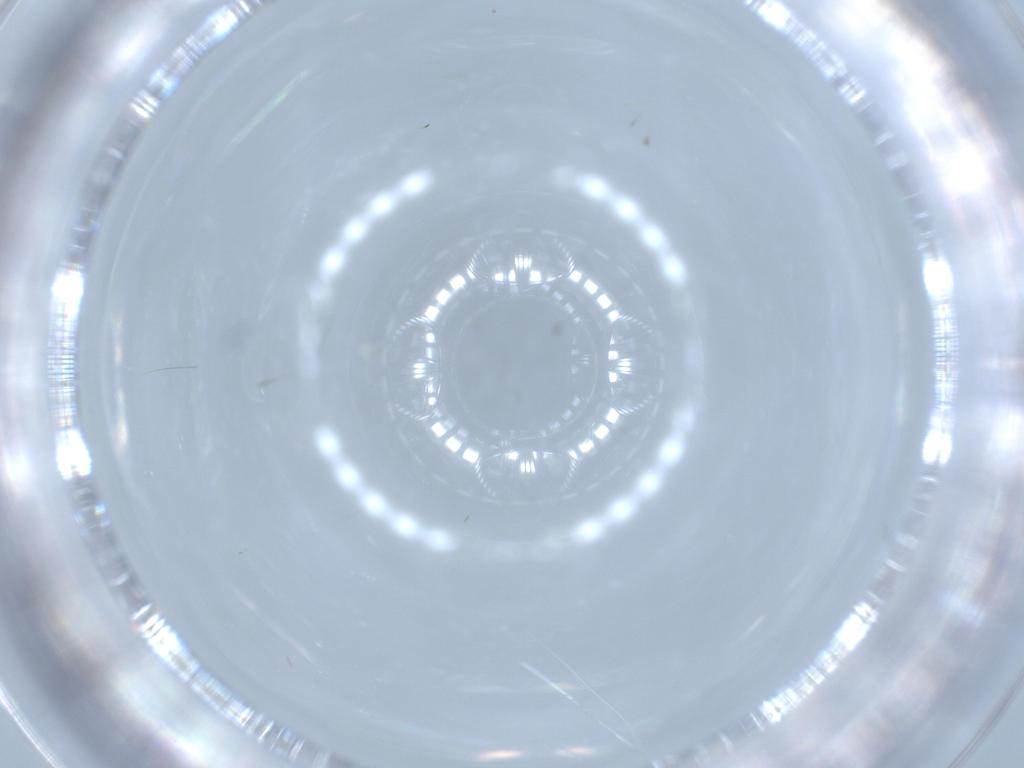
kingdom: Animalia
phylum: Arthropoda
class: Insecta
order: Diptera
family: Cecidomyiidae
